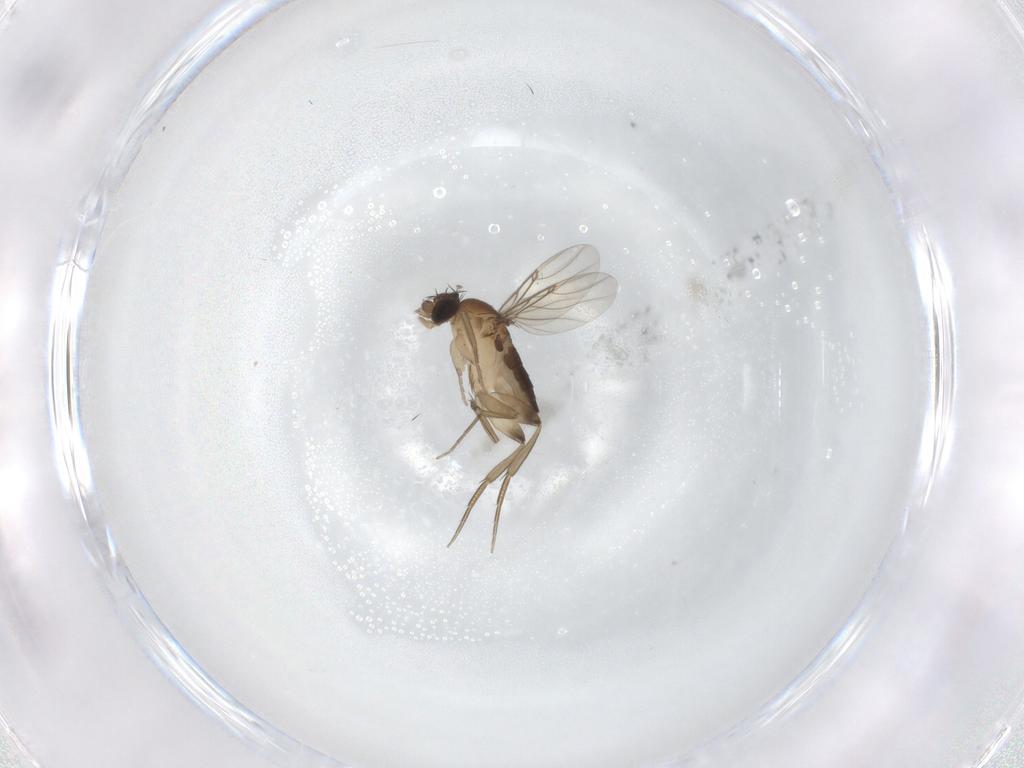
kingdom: Animalia
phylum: Arthropoda
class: Insecta
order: Diptera
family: Phoridae
